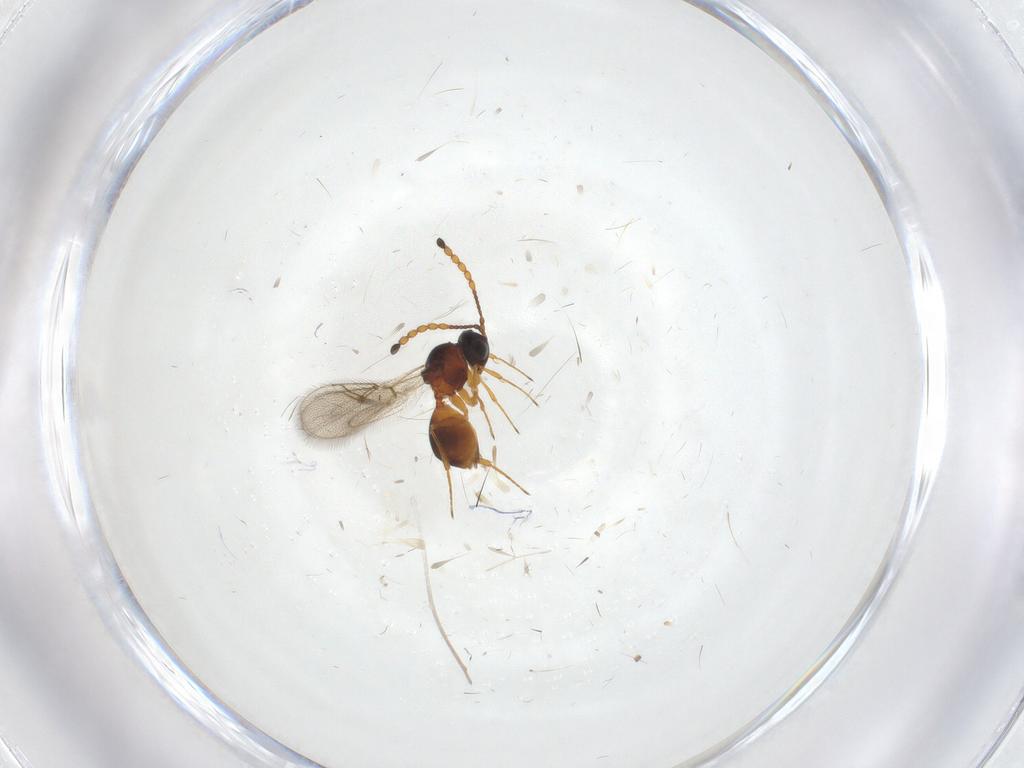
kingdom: Animalia
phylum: Arthropoda
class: Insecta
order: Hymenoptera
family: Figitidae
